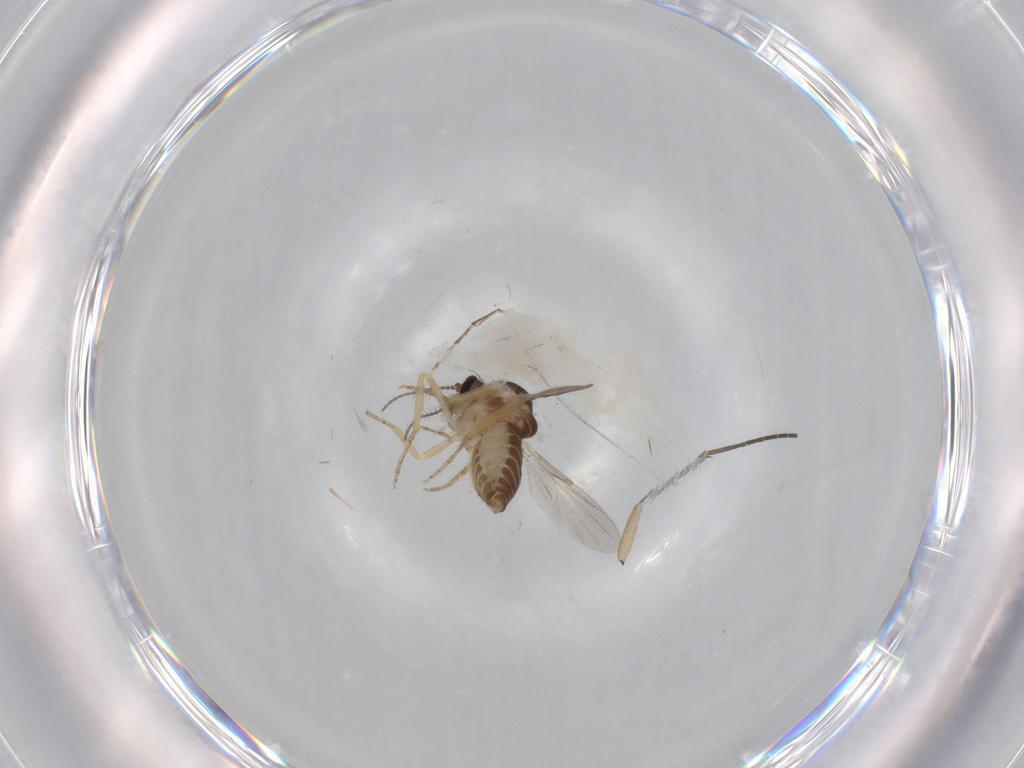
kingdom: Animalia
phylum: Arthropoda
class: Insecta
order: Diptera
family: Ceratopogonidae
